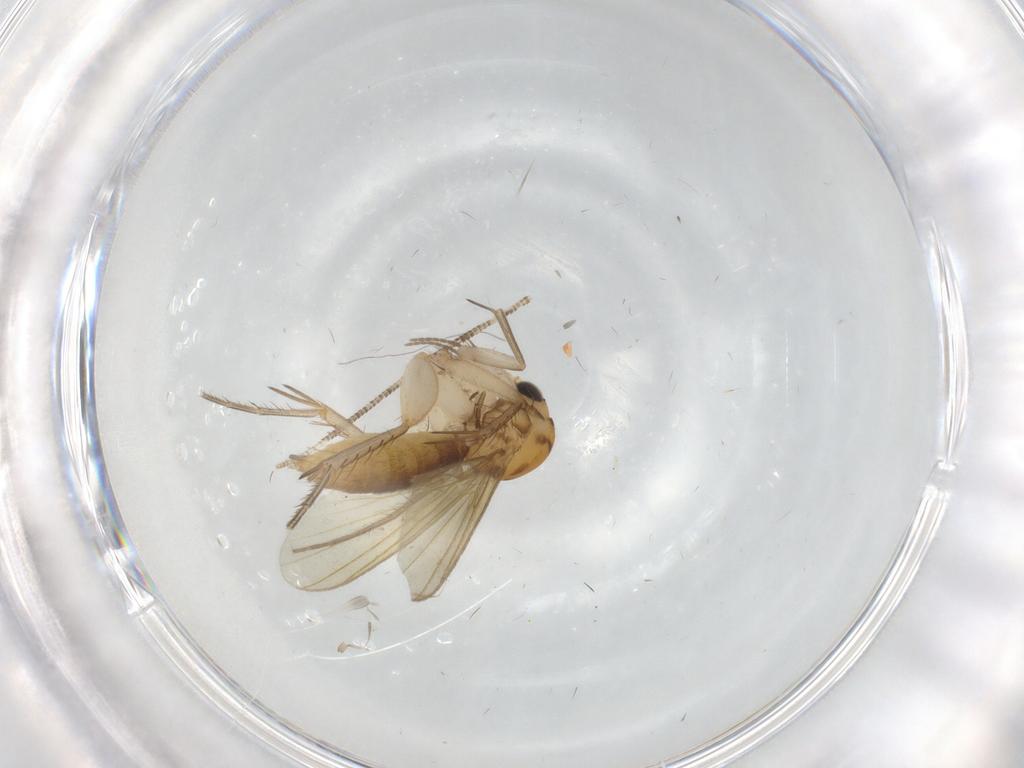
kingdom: Animalia
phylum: Arthropoda
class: Insecta
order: Diptera
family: Mycetophilidae
